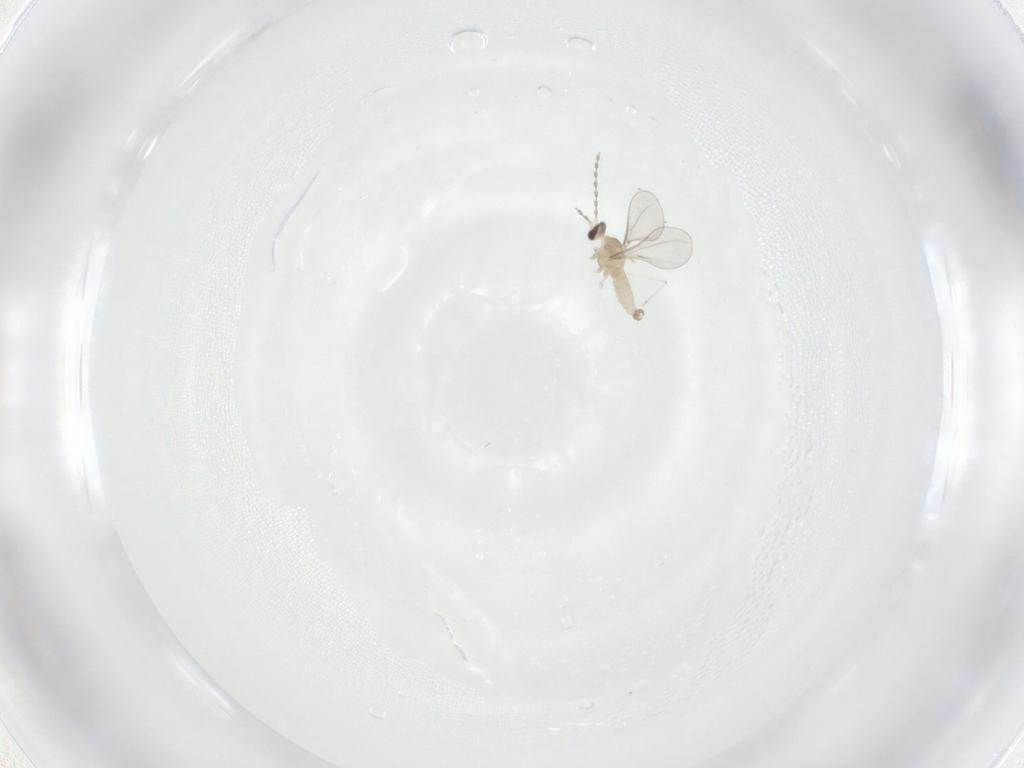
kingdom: Animalia
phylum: Arthropoda
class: Insecta
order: Diptera
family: Cecidomyiidae
